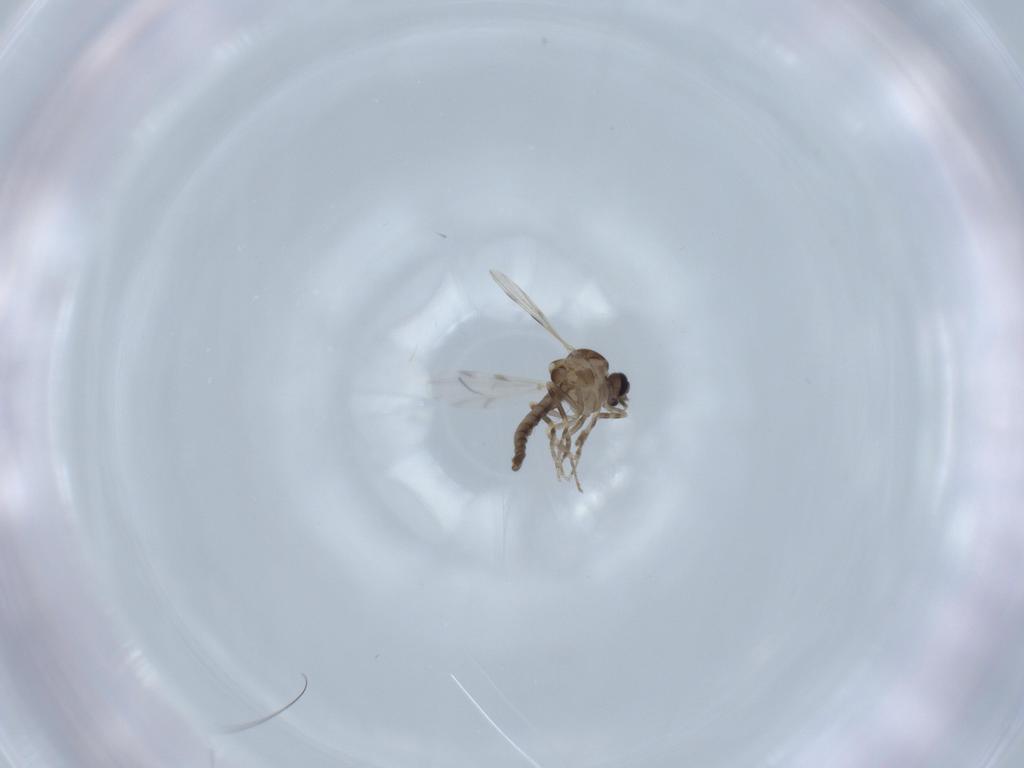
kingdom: Animalia
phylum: Arthropoda
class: Insecta
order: Diptera
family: Ceratopogonidae
